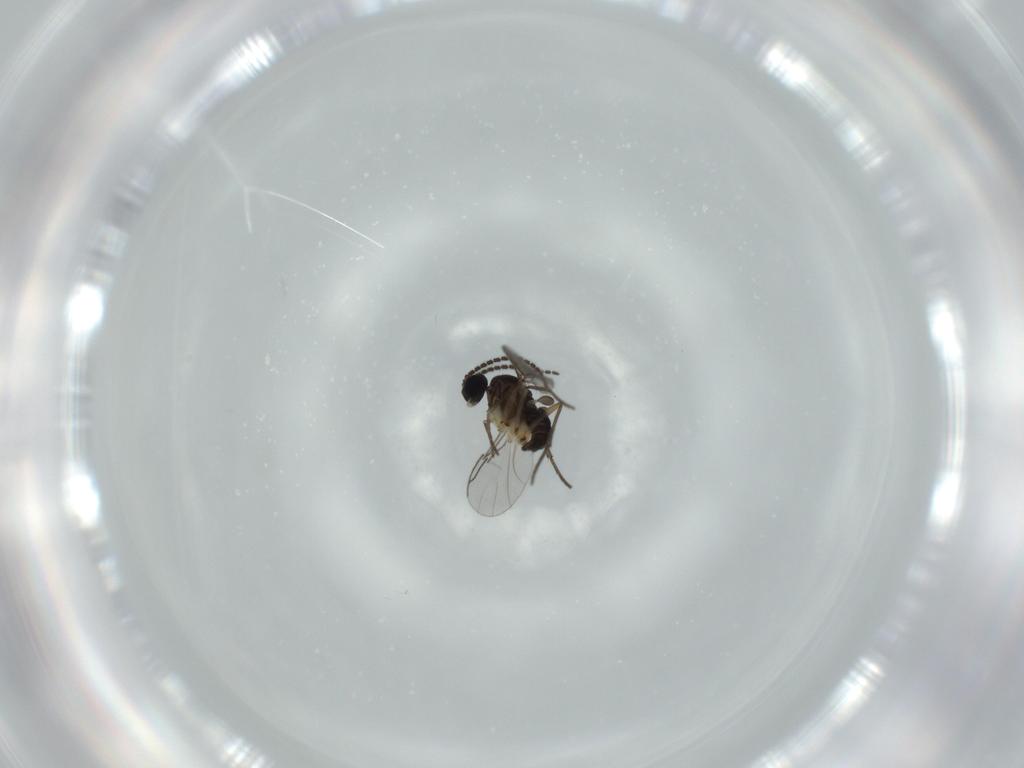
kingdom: Animalia
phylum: Arthropoda
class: Insecta
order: Diptera
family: Sciaridae
